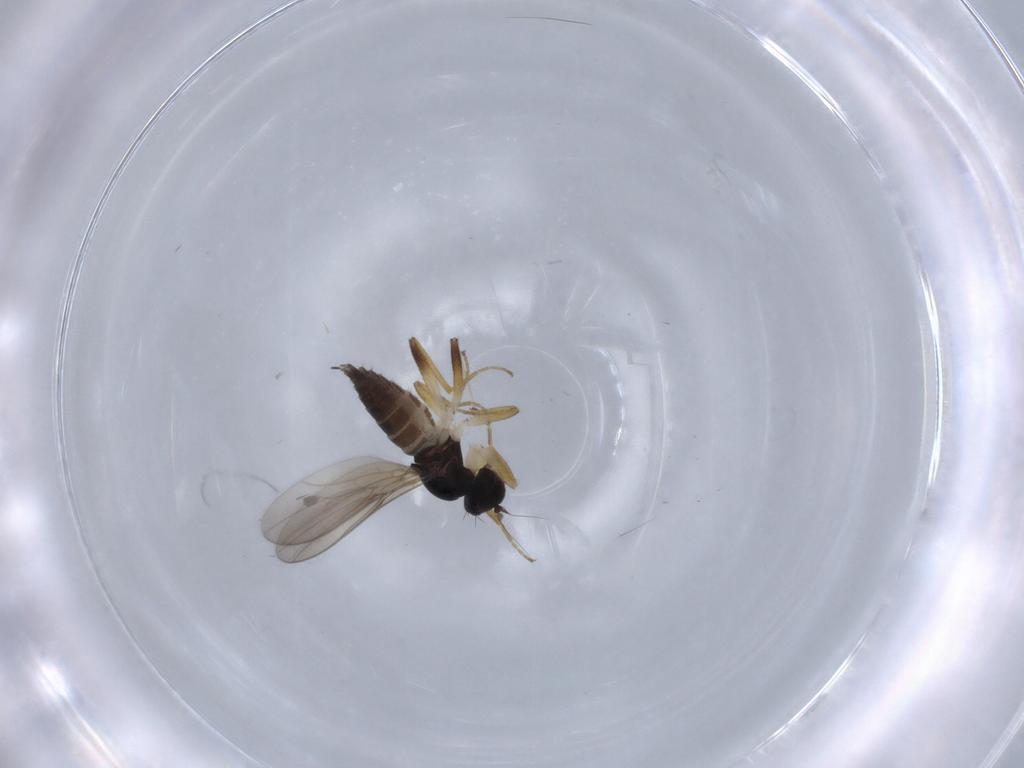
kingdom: Animalia
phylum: Arthropoda
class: Insecta
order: Diptera
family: Hybotidae
